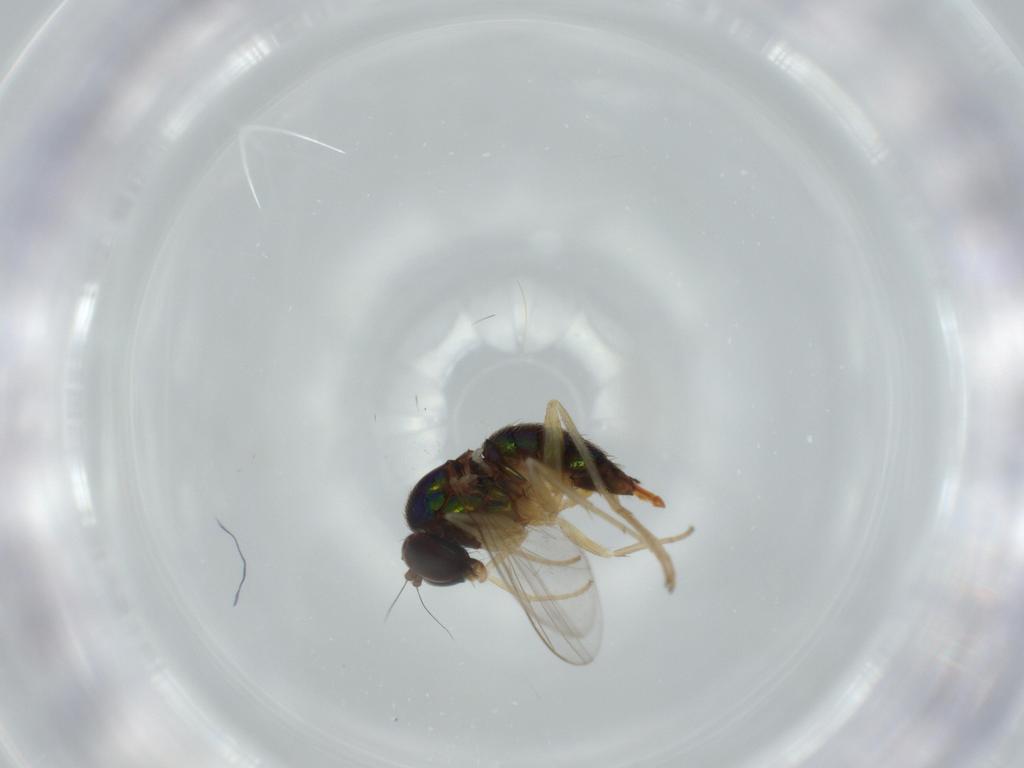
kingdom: Animalia
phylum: Arthropoda
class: Insecta
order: Diptera
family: Dolichopodidae
